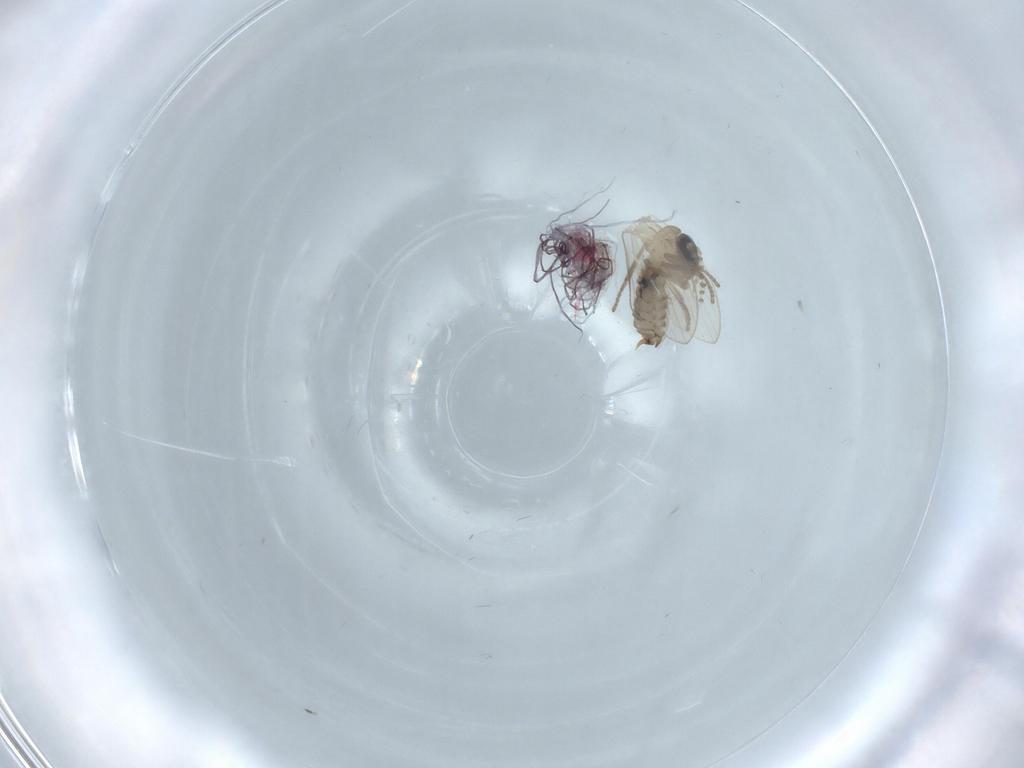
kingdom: Animalia
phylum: Arthropoda
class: Insecta
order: Diptera
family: Psychodidae
